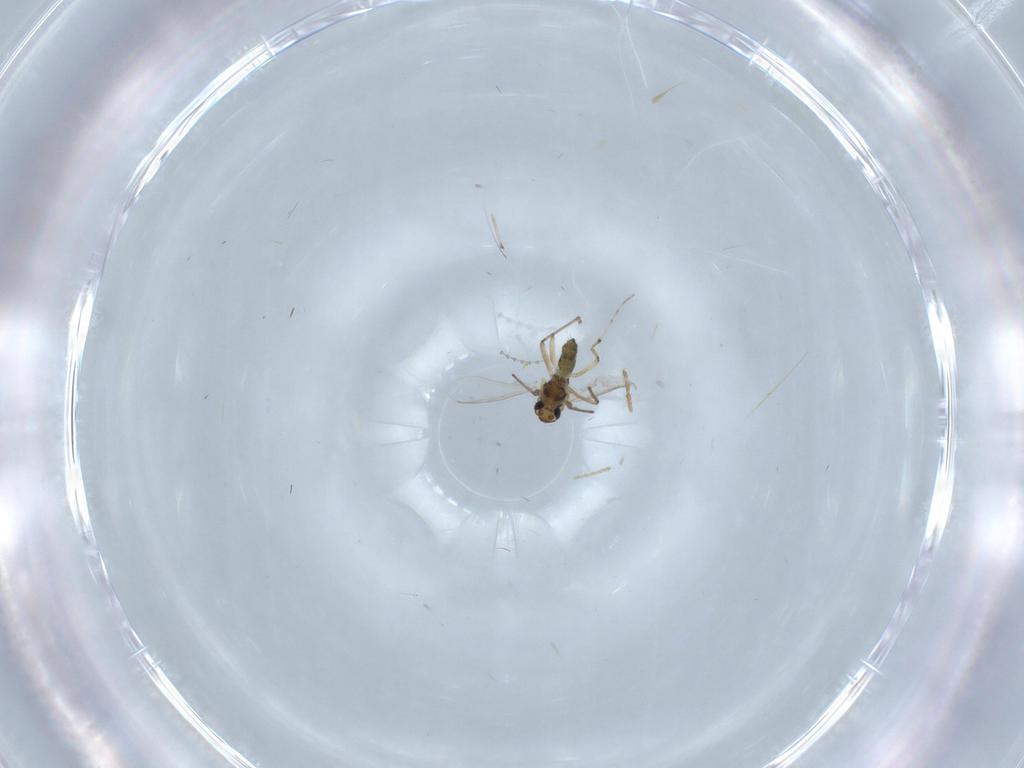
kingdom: Animalia
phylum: Arthropoda
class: Insecta
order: Diptera
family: Chironomidae
